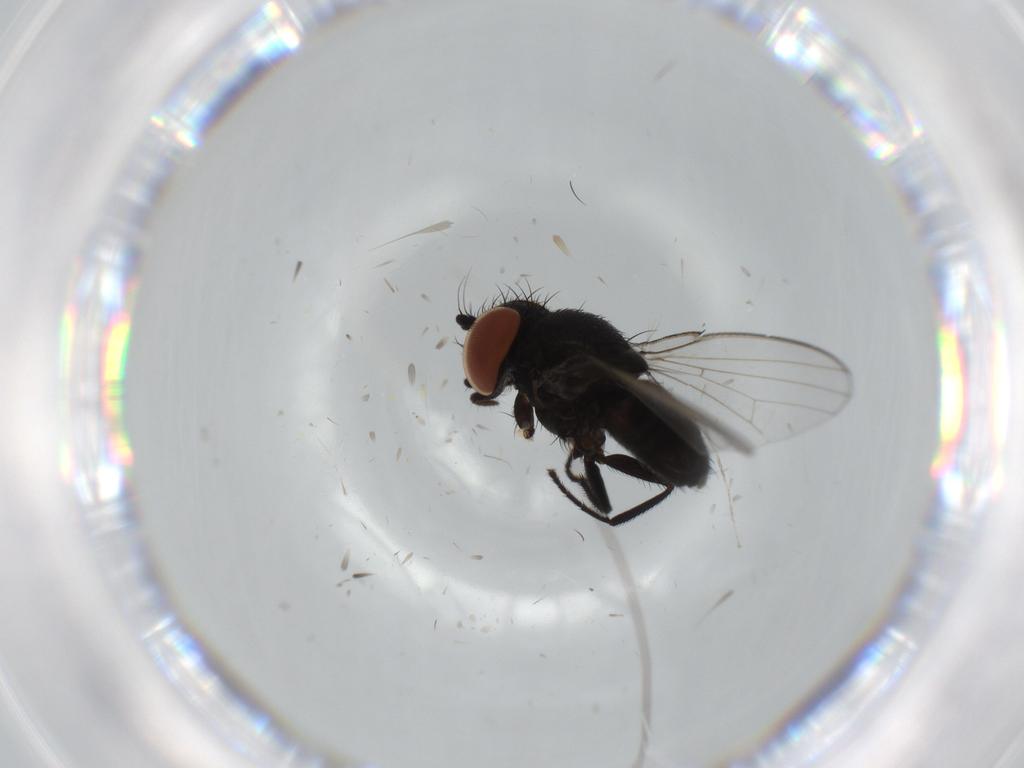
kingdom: Animalia
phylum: Arthropoda
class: Insecta
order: Diptera
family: Milichiidae
